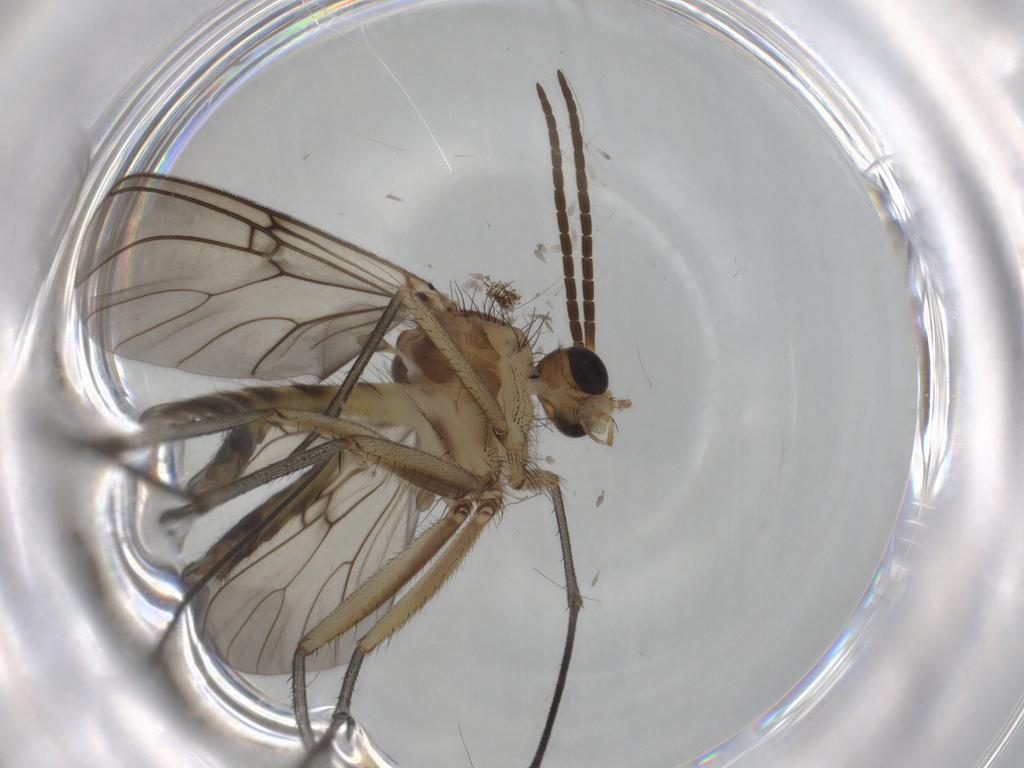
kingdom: Animalia
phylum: Arthropoda
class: Insecta
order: Diptera
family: Mycetophilidae
